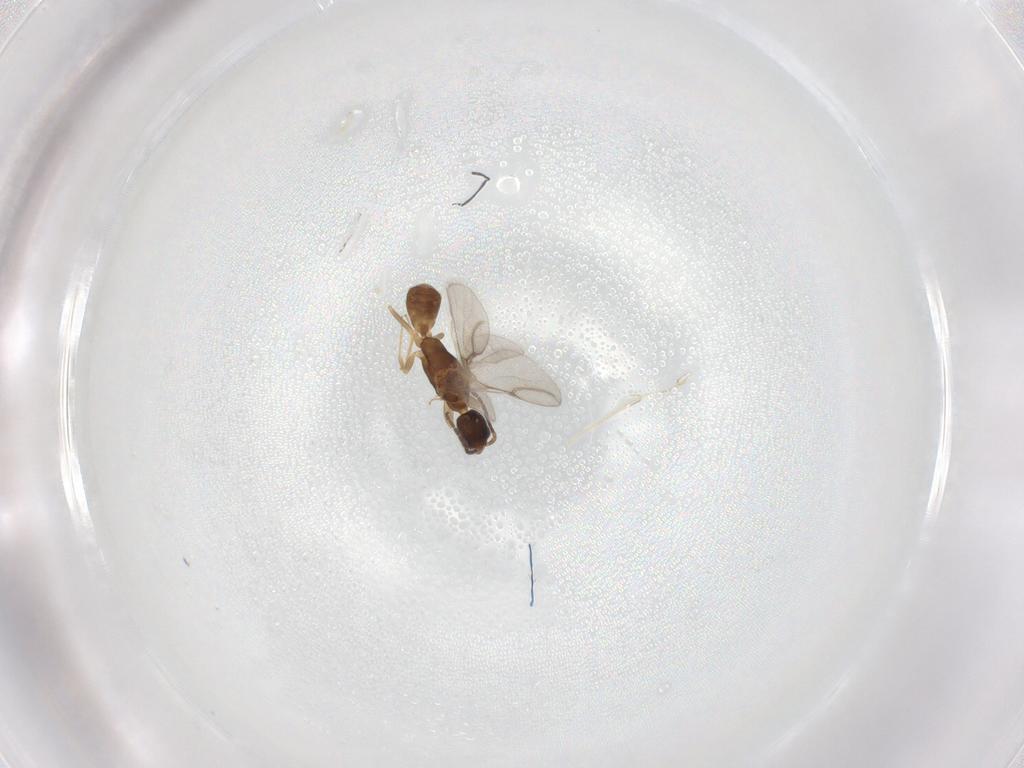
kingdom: Animalia
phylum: Arthropoda
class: Insecta
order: Hymenoptera
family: Bethylidae
